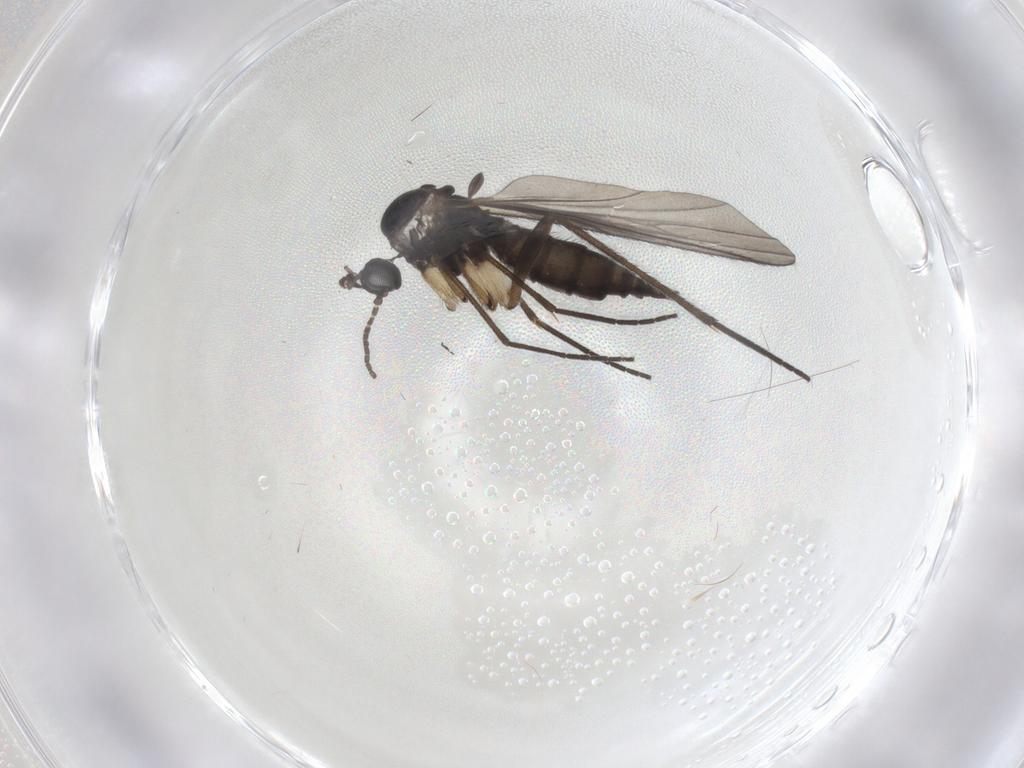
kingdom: Animalia
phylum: Arthropoda
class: Insecta
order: Diptera
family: Sciaridae
